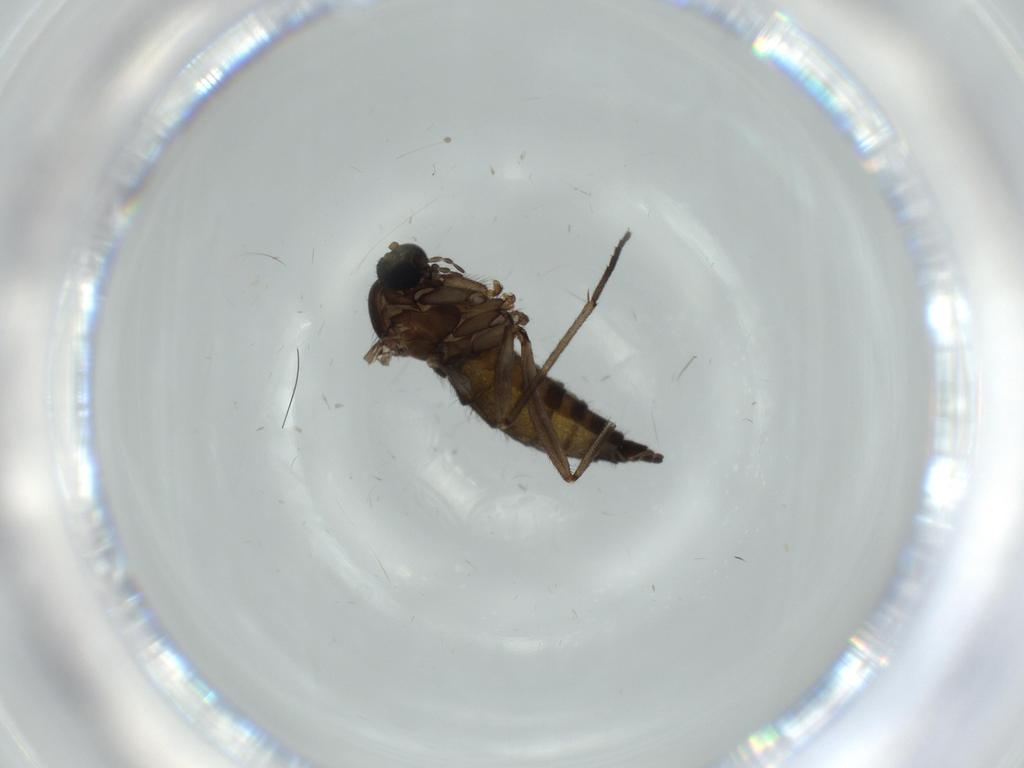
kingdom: Animalia
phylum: Arthropoda
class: Insecta
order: Diptera
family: Sciaridae
